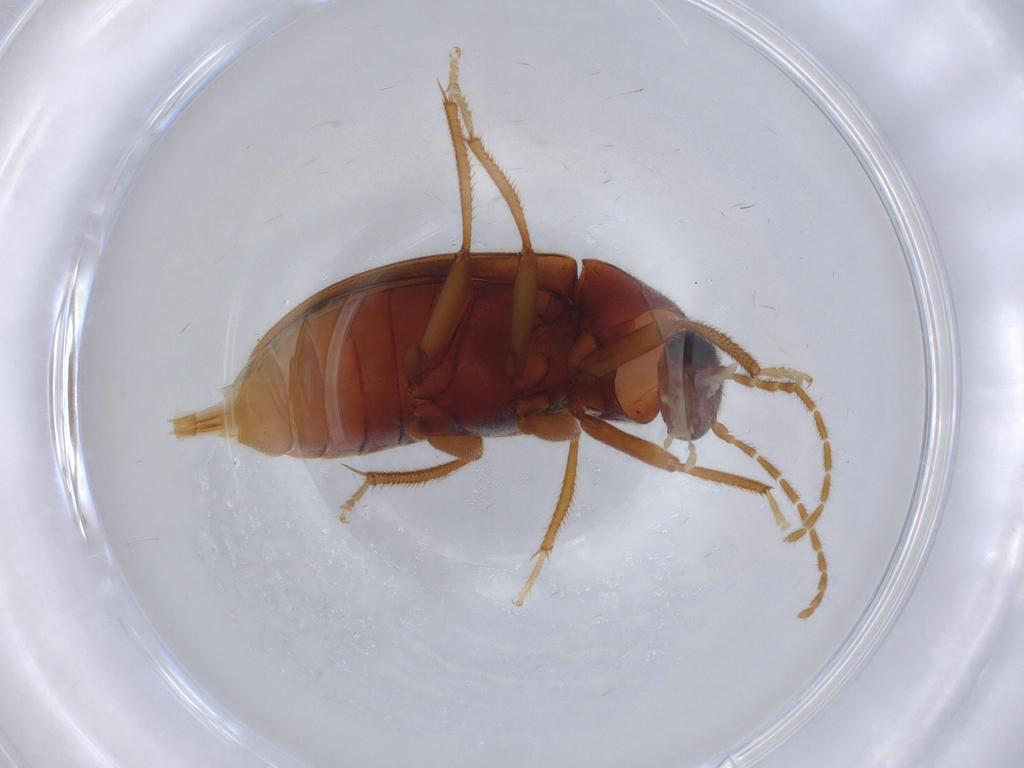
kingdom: Animalia
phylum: Arthropoda
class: Insecta
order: Coleoptera
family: Ptilodactylidae
